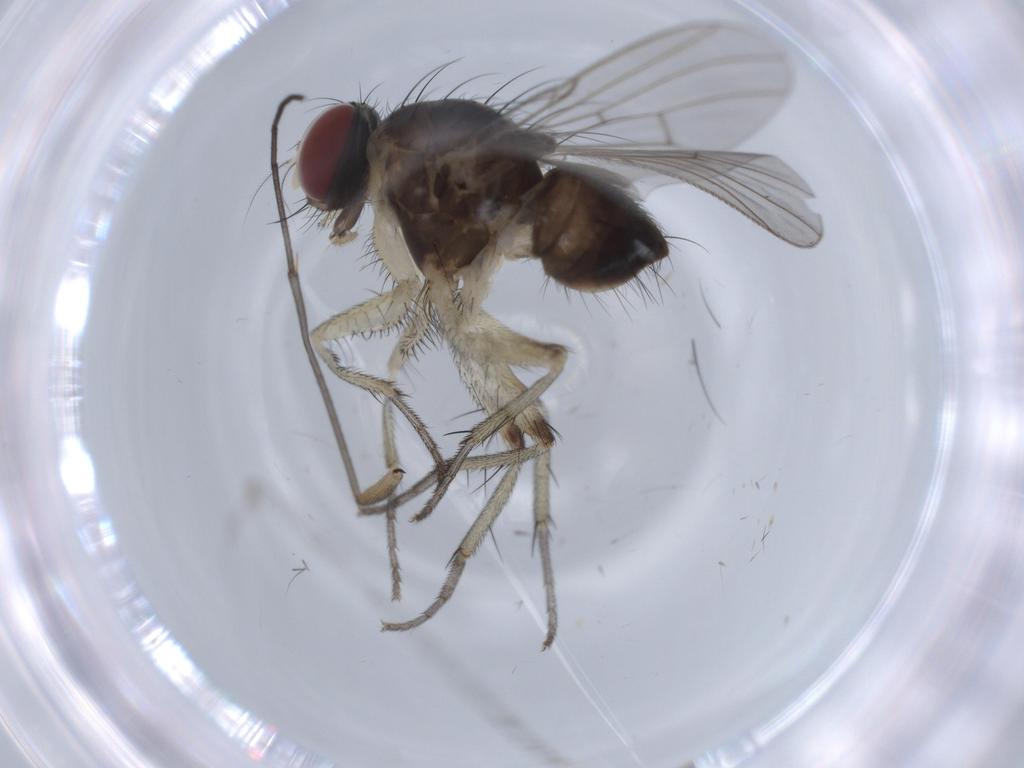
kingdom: Animalia
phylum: Arthropoda
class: Insecta
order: Diptera
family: Muscidae
